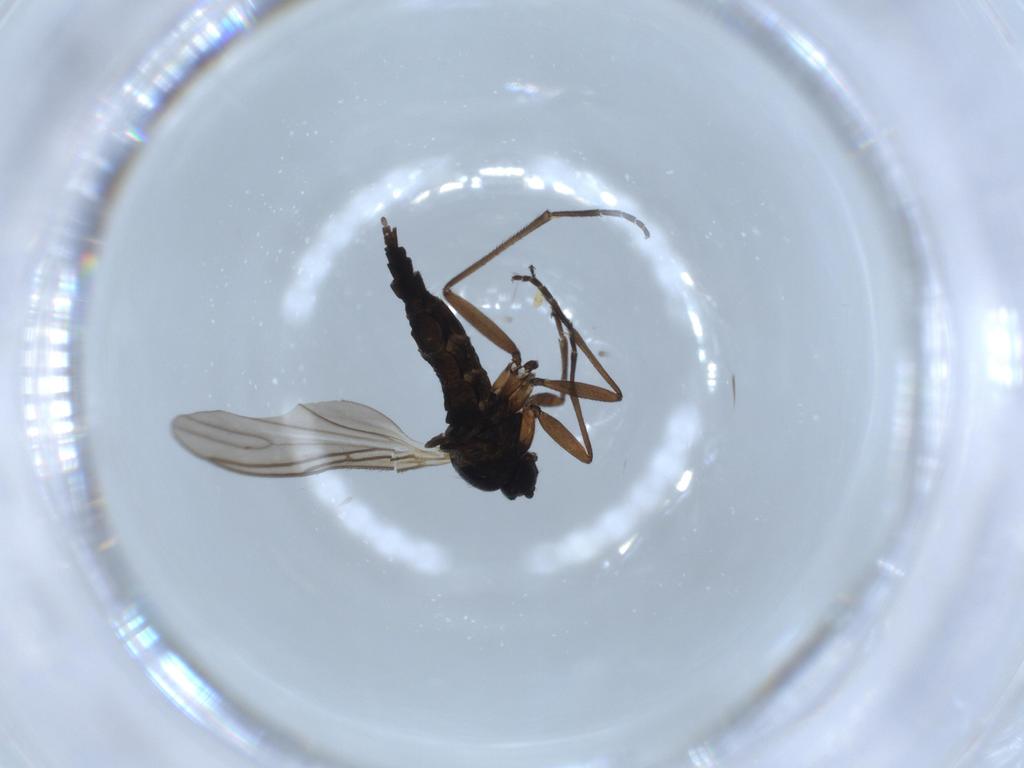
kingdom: Animalia
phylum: Arthropoda
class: Insecta
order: Diptera
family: Sciaridae
